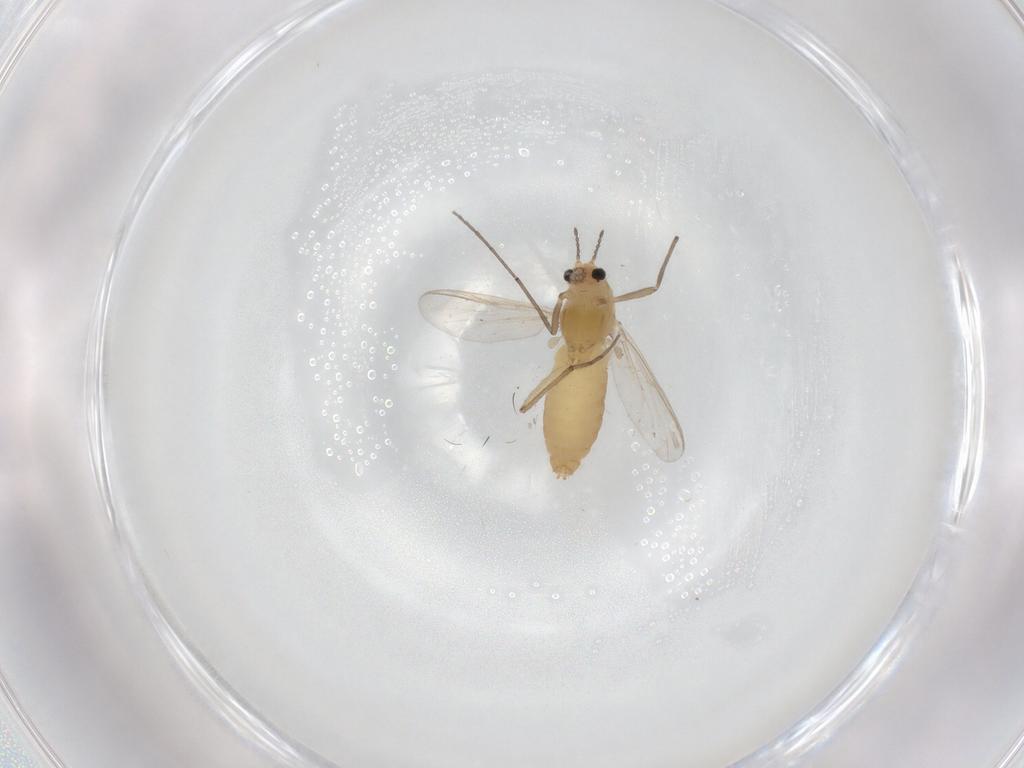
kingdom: Animalia
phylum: Arthropoda
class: Insecta
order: Diptera
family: Chironomidae
